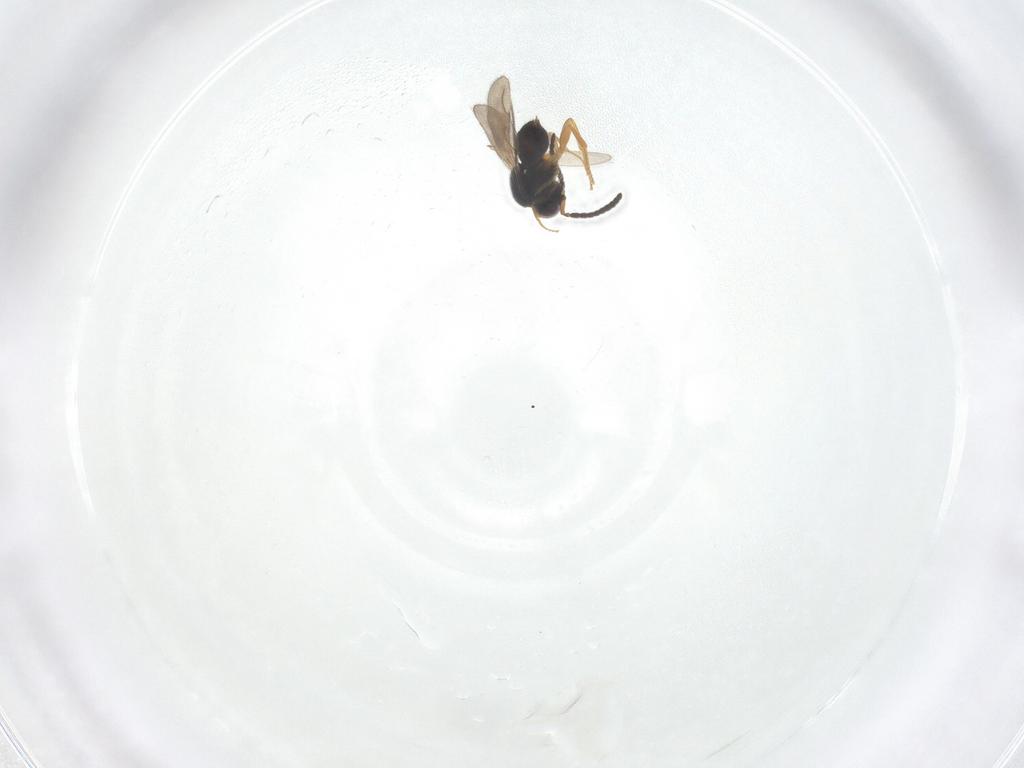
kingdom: Animalia
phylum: Arthropoda
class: Insecta
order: Hymenoptera
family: Ceraphronidae
